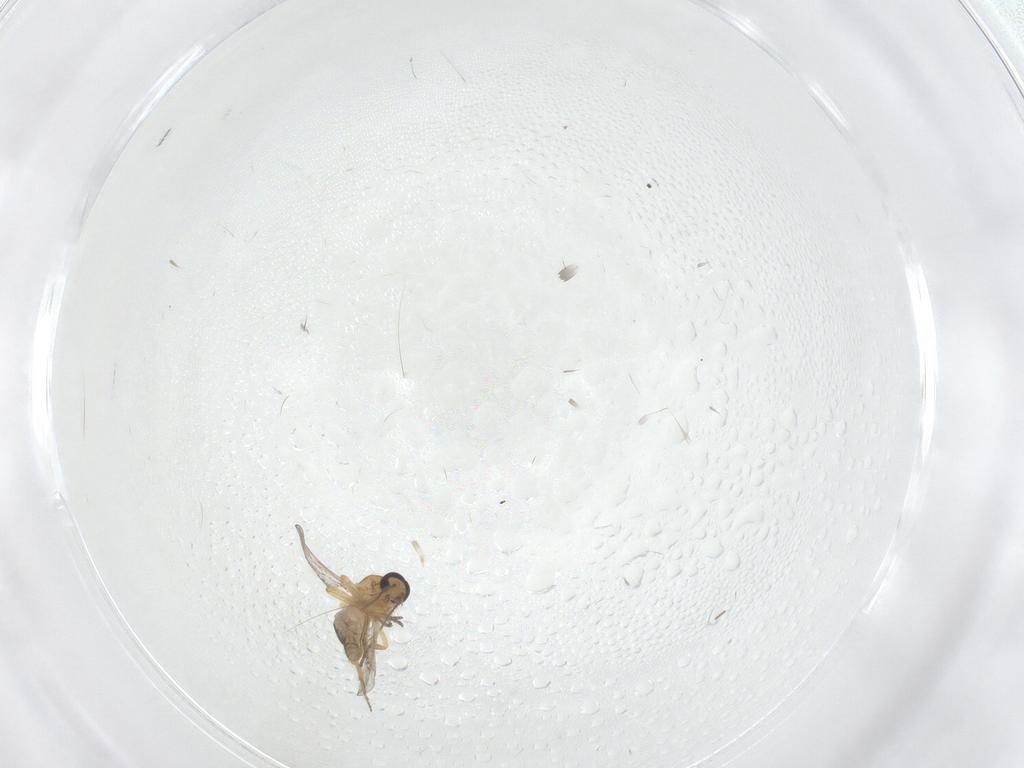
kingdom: Animalia
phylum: Arthropoda
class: Insecta
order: Diptera
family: Ceratopogonidae
